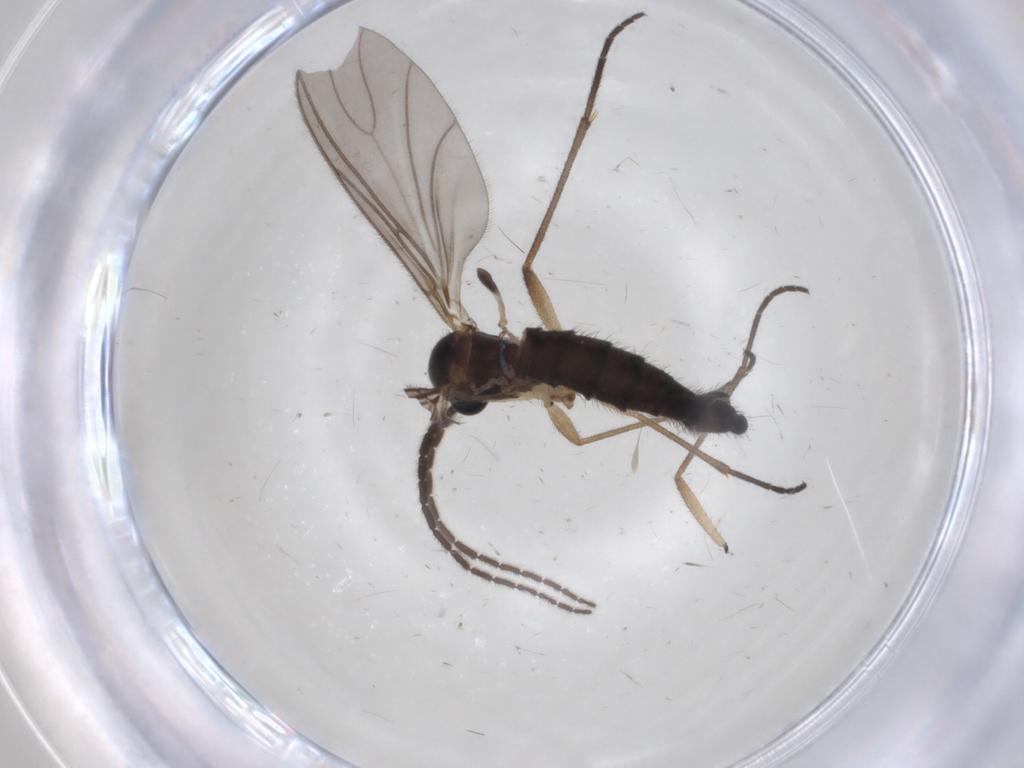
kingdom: Animalia
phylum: Arthropoda
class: Insecta
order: Diptera
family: Sciaridae
